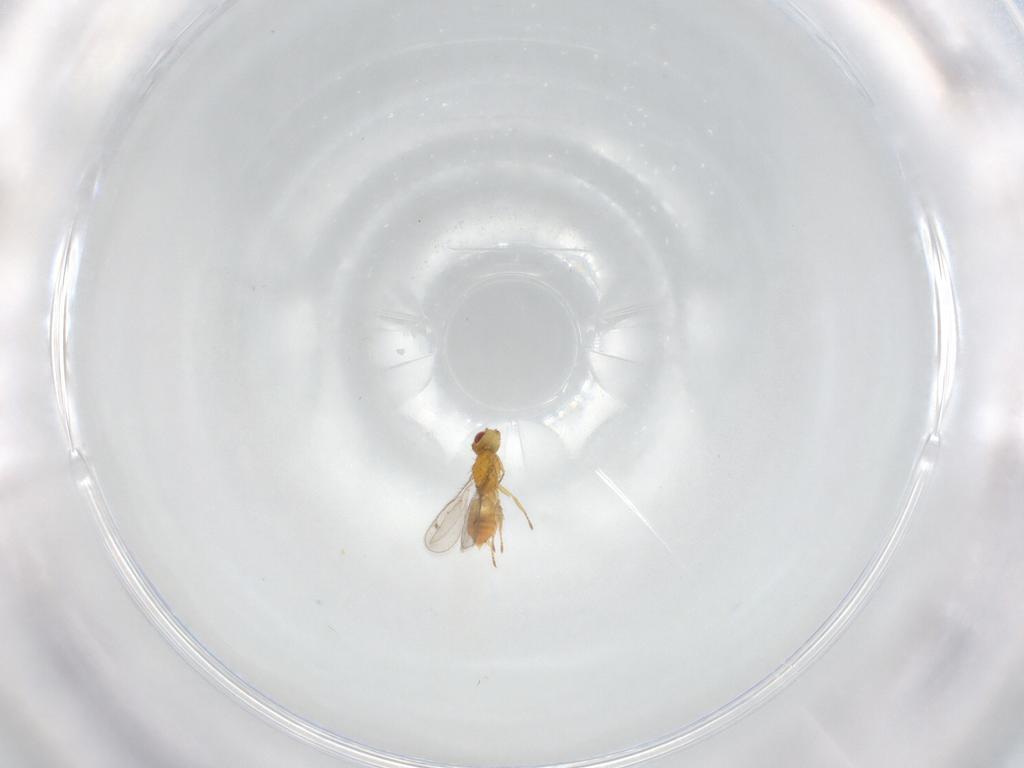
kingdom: Animalia
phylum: Arthropoda
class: Insecta
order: Hymenoptera
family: Eulophidae
